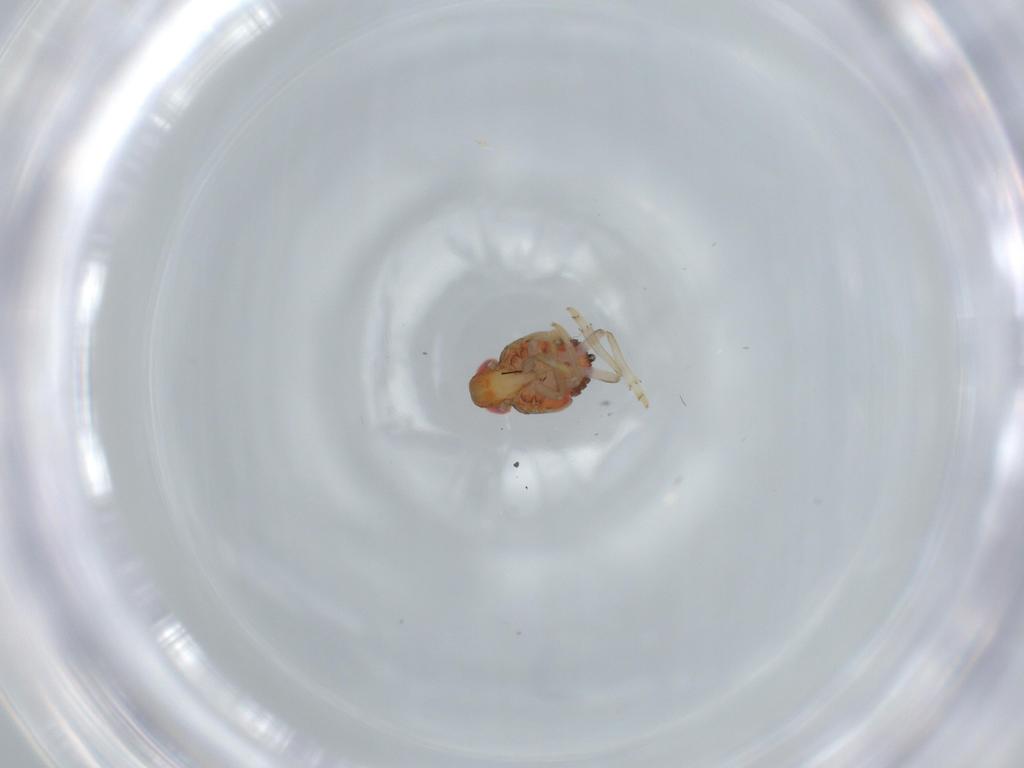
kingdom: Animalia
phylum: Arthropoda
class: Insecta
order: Hemiptera
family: Issidae
